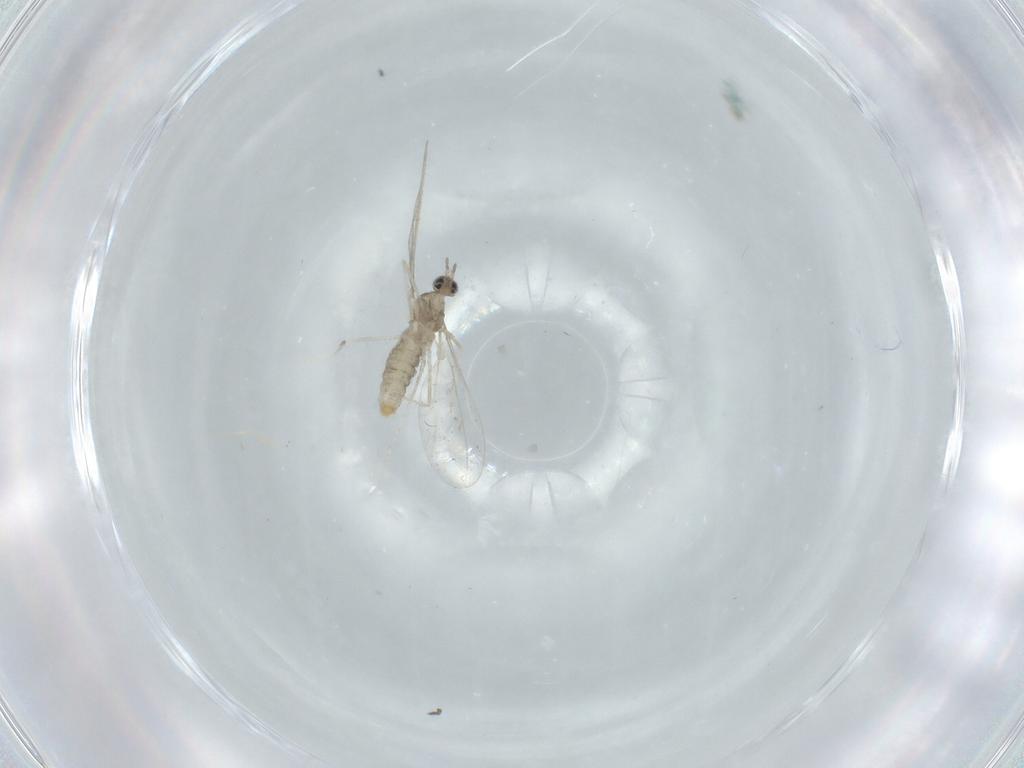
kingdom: Animalia
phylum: Arthropoda
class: Insecta
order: Diptera
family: Cecidomyiidae
